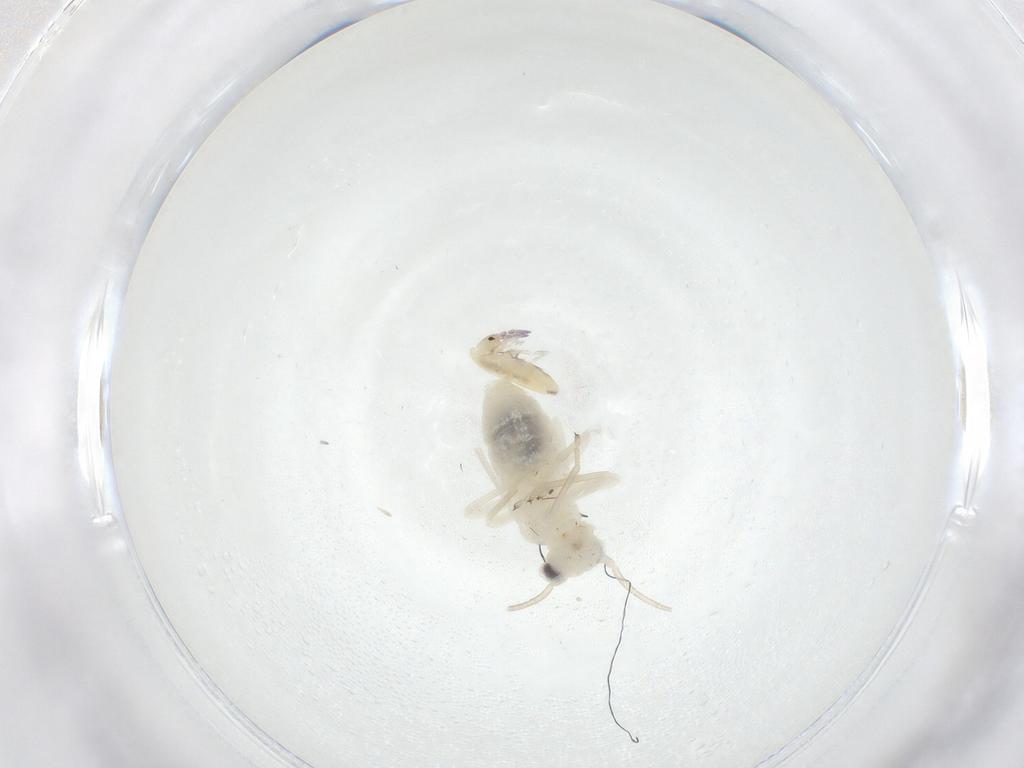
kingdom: Animalia
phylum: Arthropoda
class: Insecta
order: Psocodea
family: Caeciliusidae
